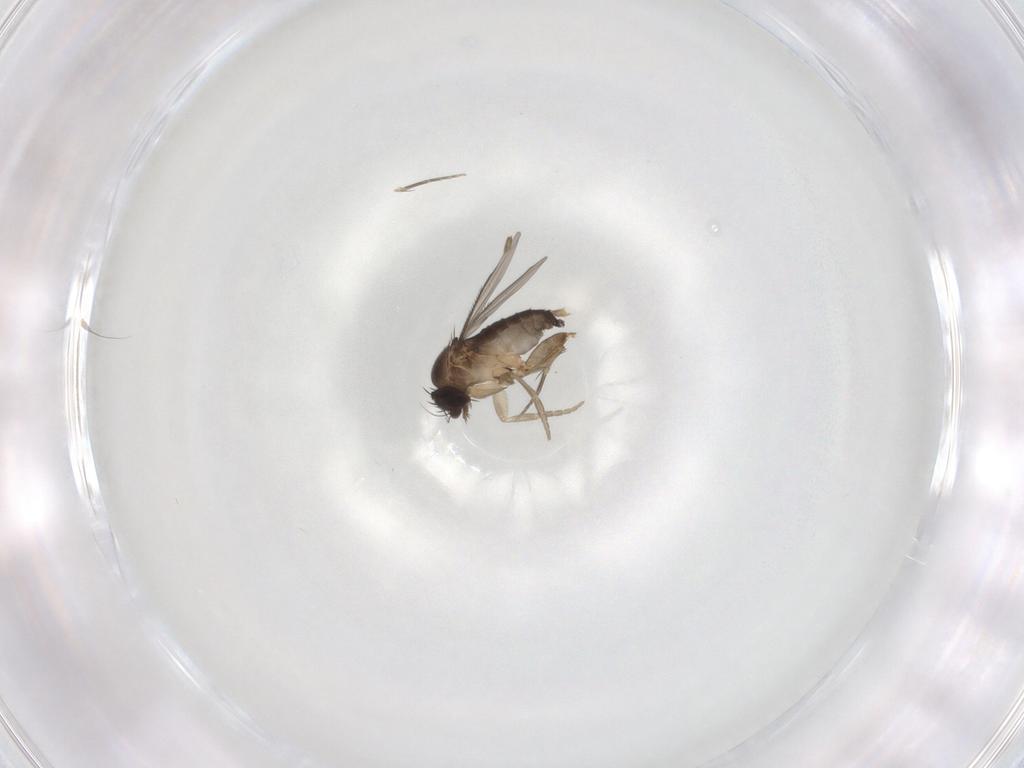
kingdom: Animalia
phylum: Arthropoda
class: Insecta
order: Diptera
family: Phoridae
